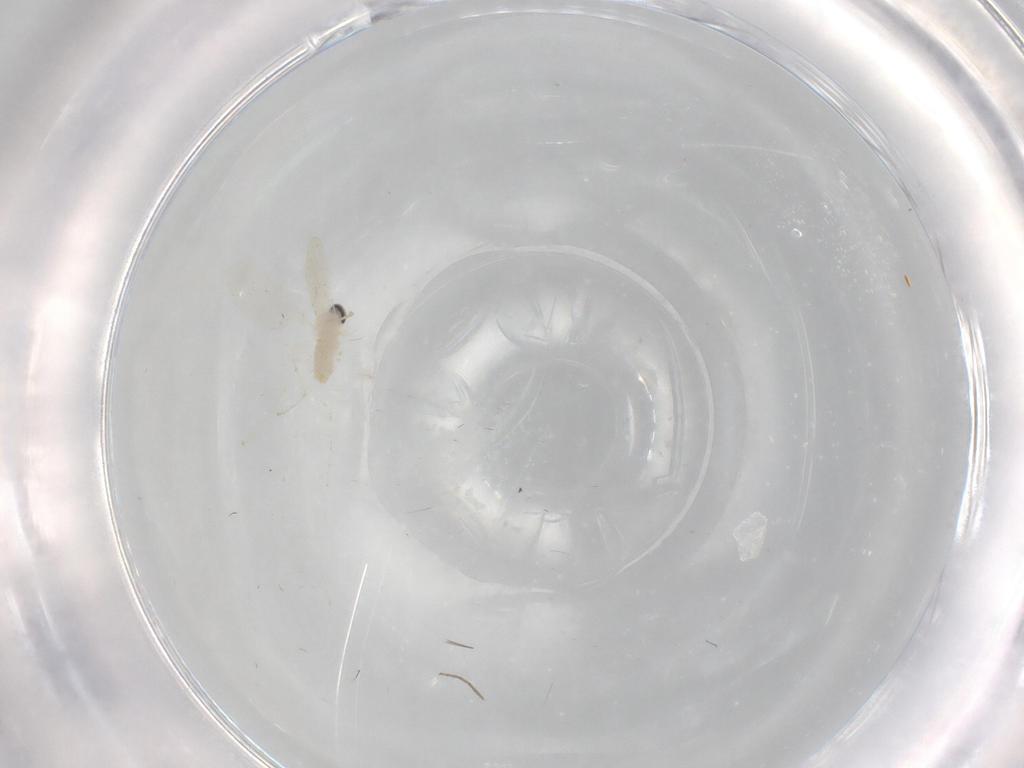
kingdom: Animalia
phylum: Arthropoda
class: Insecta
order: Diptera
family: Cecidomyiidae
